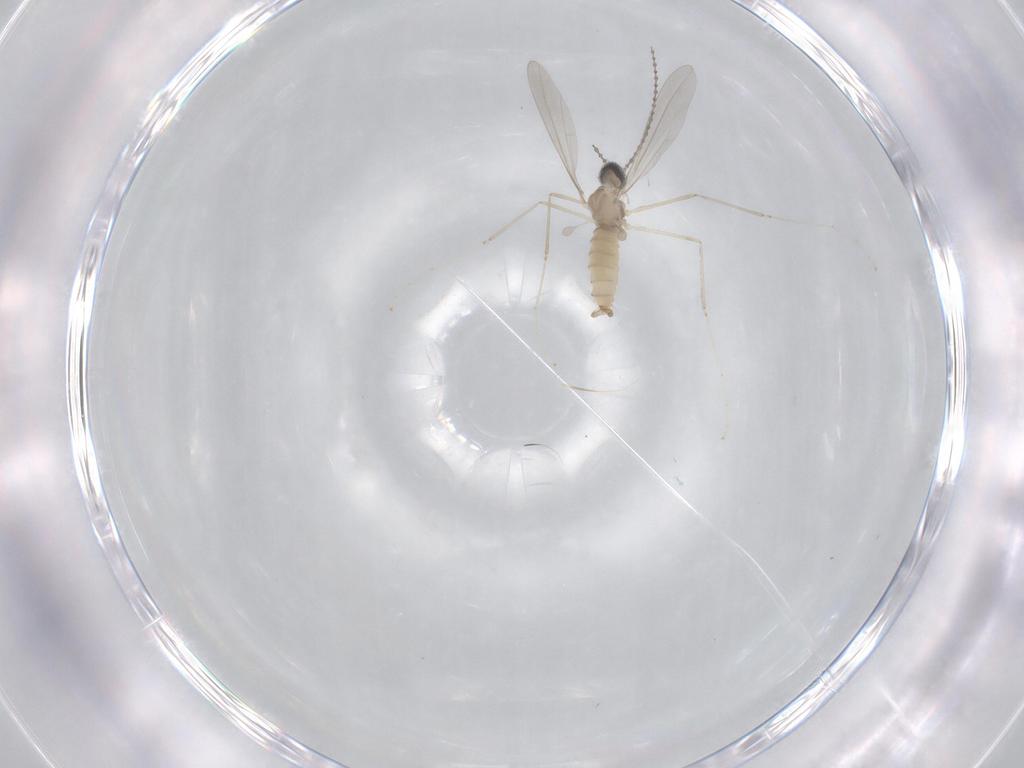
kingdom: Animalia
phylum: Arthropoda
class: Insecta
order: Diptera
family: Cecidomyiidae
